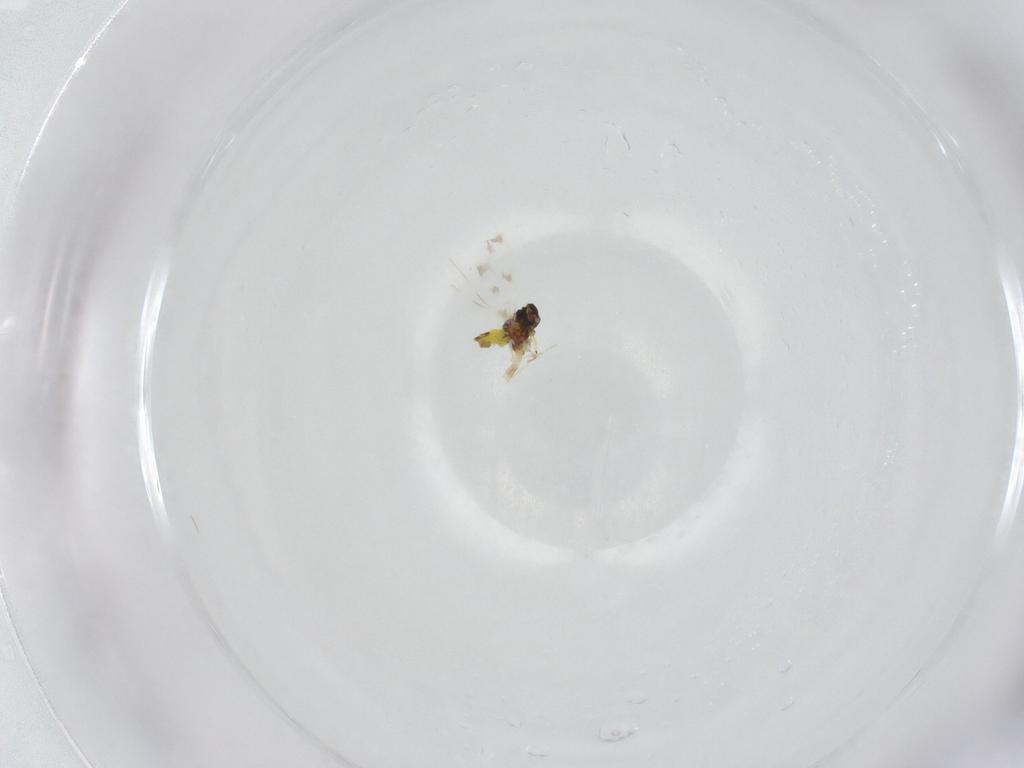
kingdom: Animalia
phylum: Arthropoda
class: Insecta
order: Hemiptera
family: Aleyrodidae
